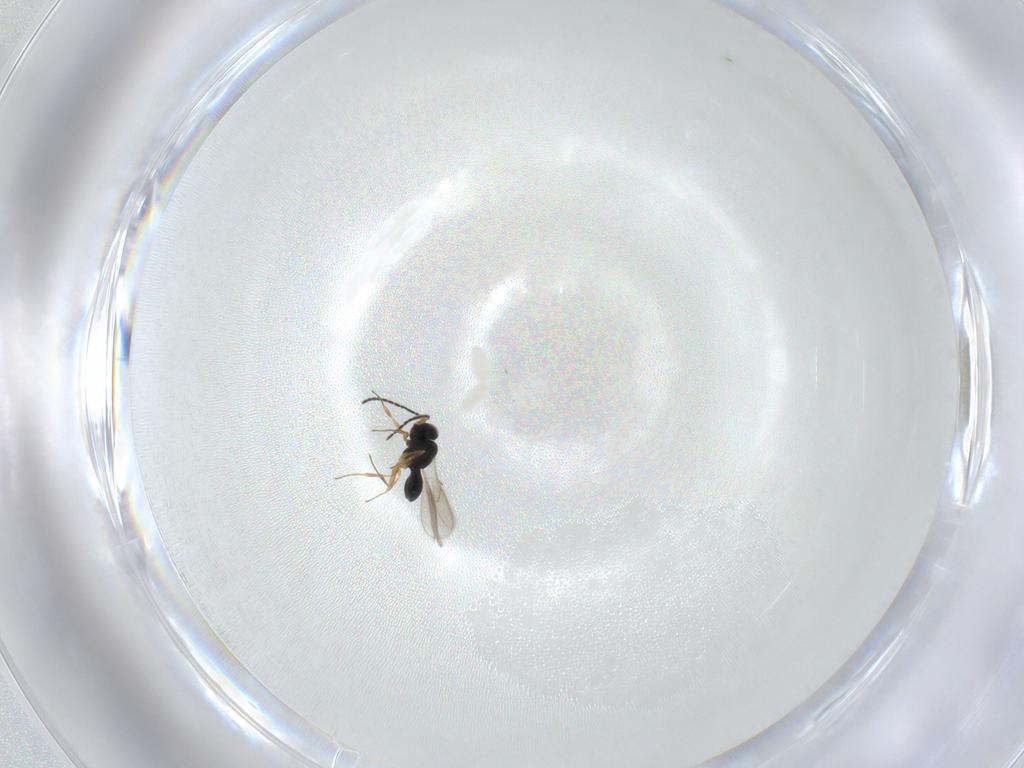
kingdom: Animalia
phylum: Arthropoda
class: Insecta
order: Hymenoptera
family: Scelionidae
